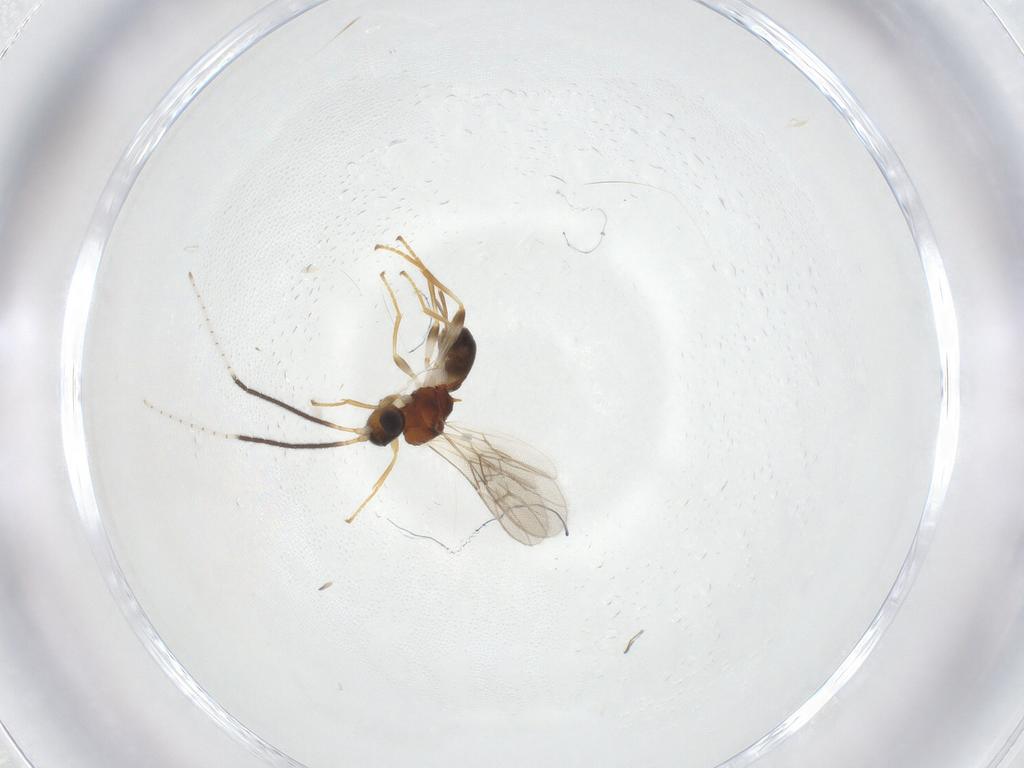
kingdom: Animalia
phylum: Arthropoda
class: Insecta
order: Hymenoptera
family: Braconidae
